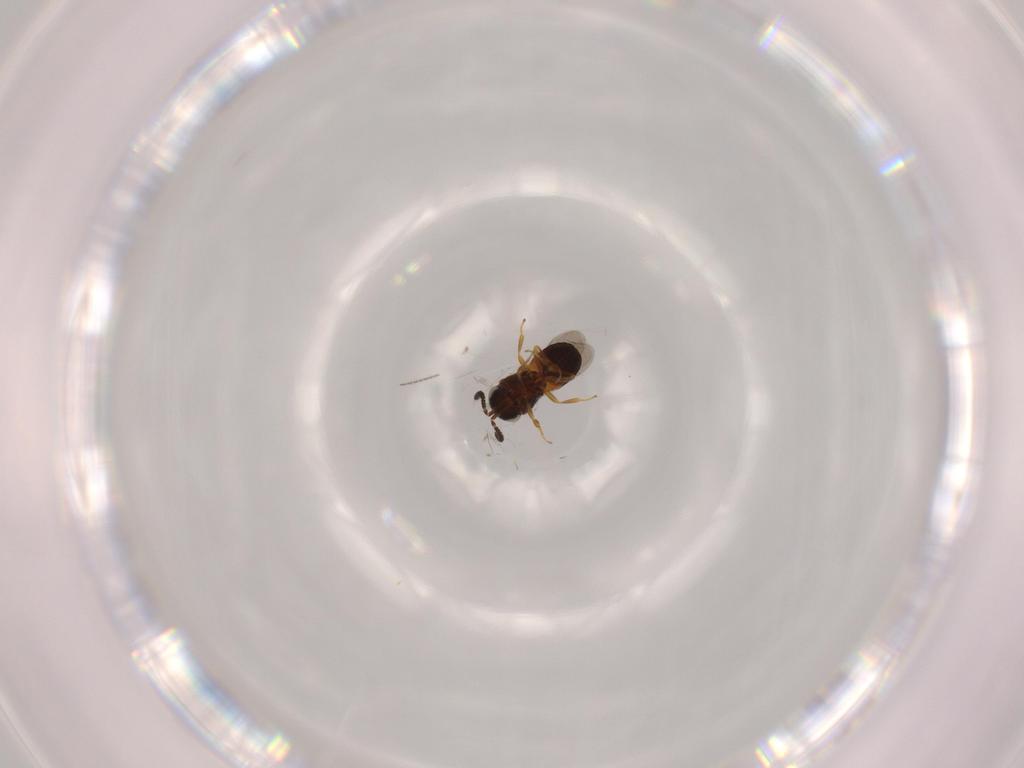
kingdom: Animalia
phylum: Arthropoda
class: Insecta
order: Hymenoptera
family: Scelionidae
